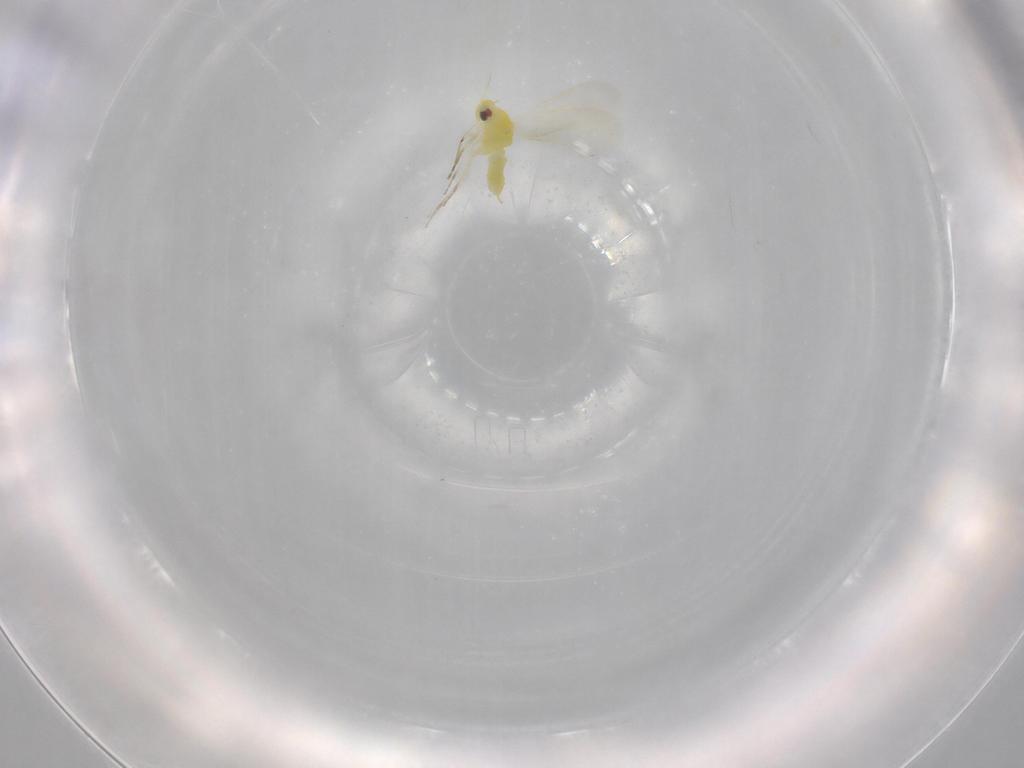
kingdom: Animalia
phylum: Arthropoda
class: Insecta
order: Hemiptera
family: Aleyrodidae
